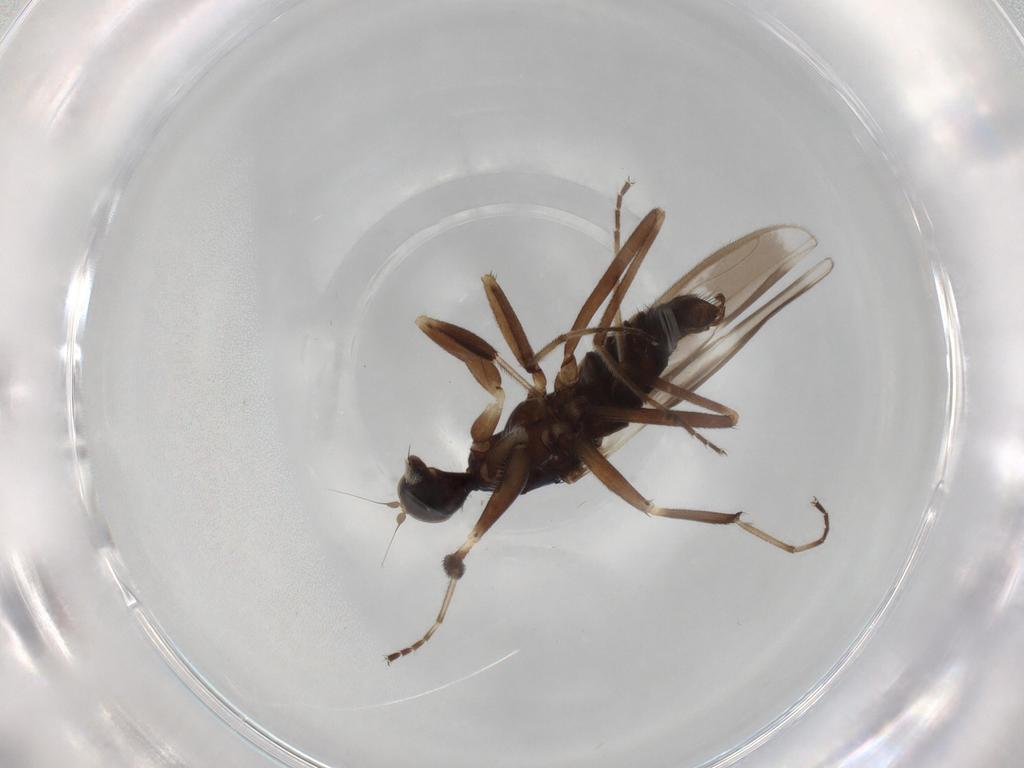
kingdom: Animalia
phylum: Arthropoda
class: Insecta
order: Diptera
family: Hybotidae
